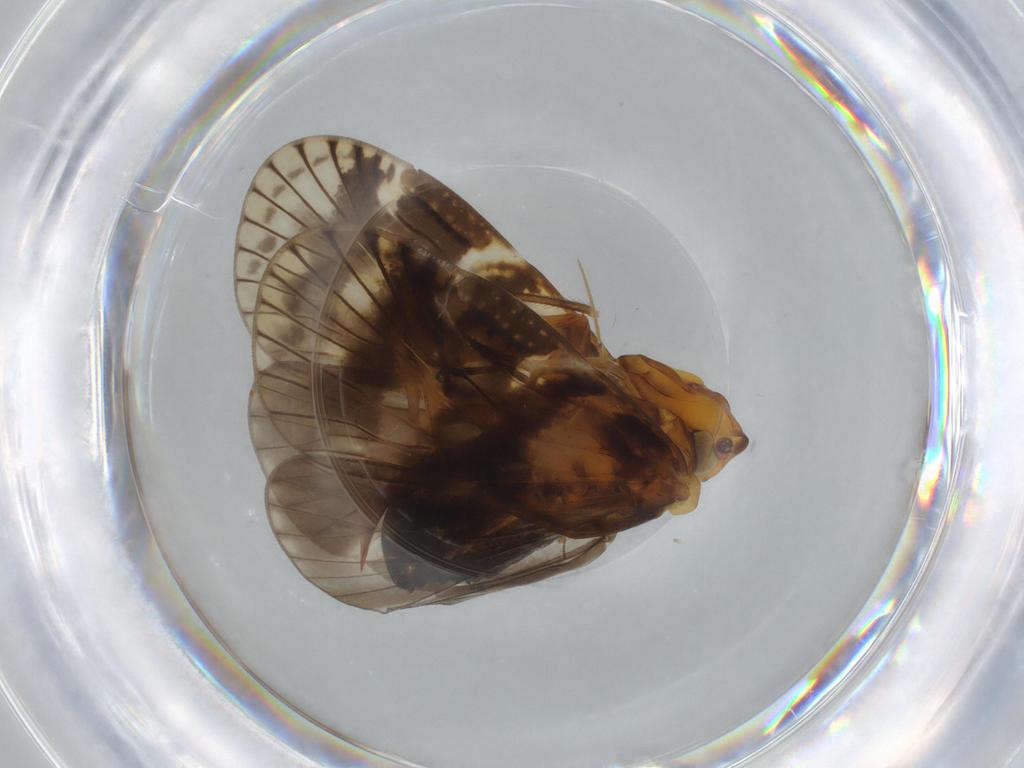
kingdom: Animalia
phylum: Arthropoda
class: Insecta
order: Hemiptera
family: Cixiidae
